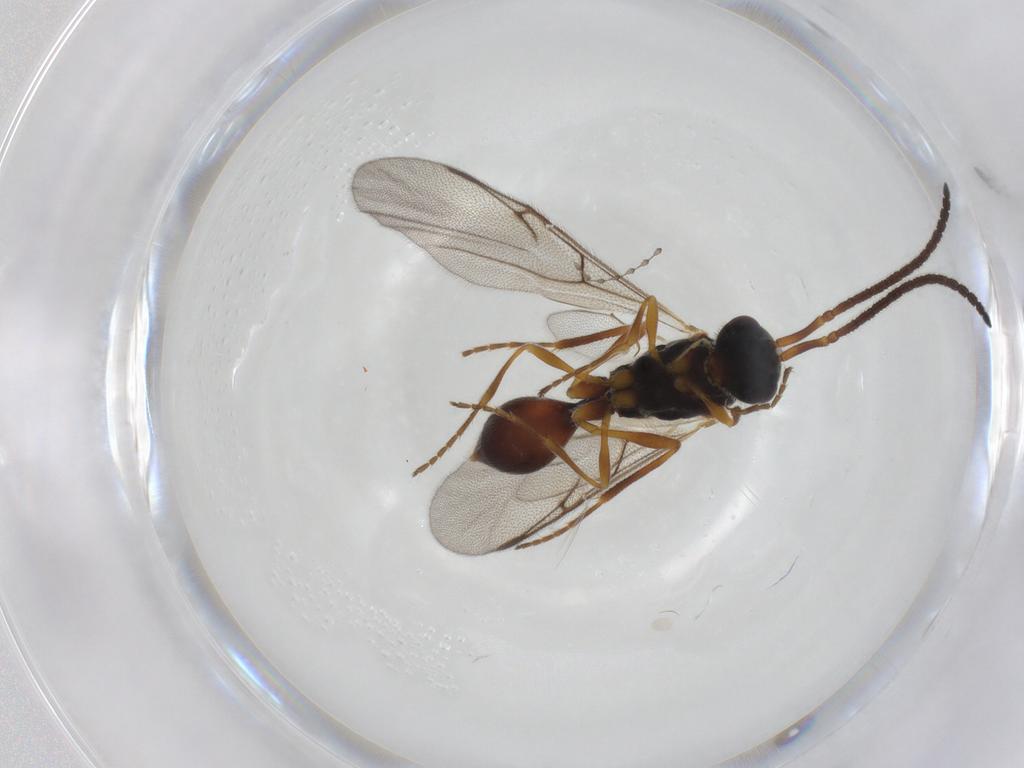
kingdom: Animalia
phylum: Arthropoda
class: Insecta
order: Hymenoptera
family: Diapriidae
